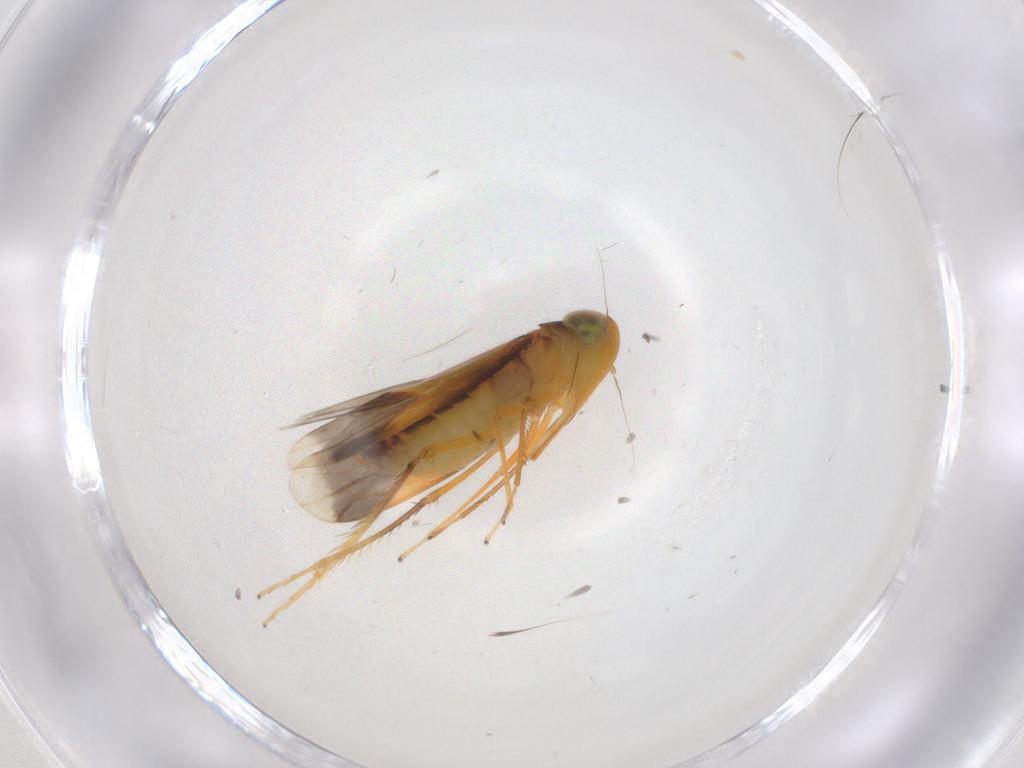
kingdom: Animalia
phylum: Arthropoda
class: Insecta
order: Hemiptera
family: Cicadellidae
